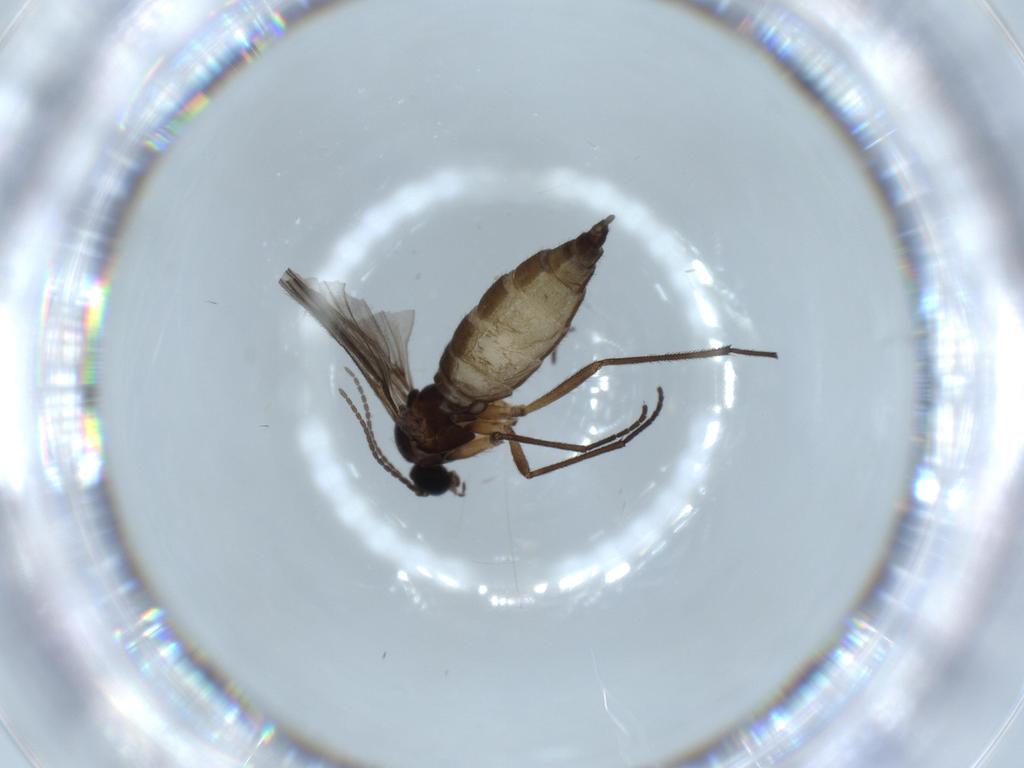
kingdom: Animalia
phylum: Arthropoda
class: Insecta
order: Diptera
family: Sciaridae
